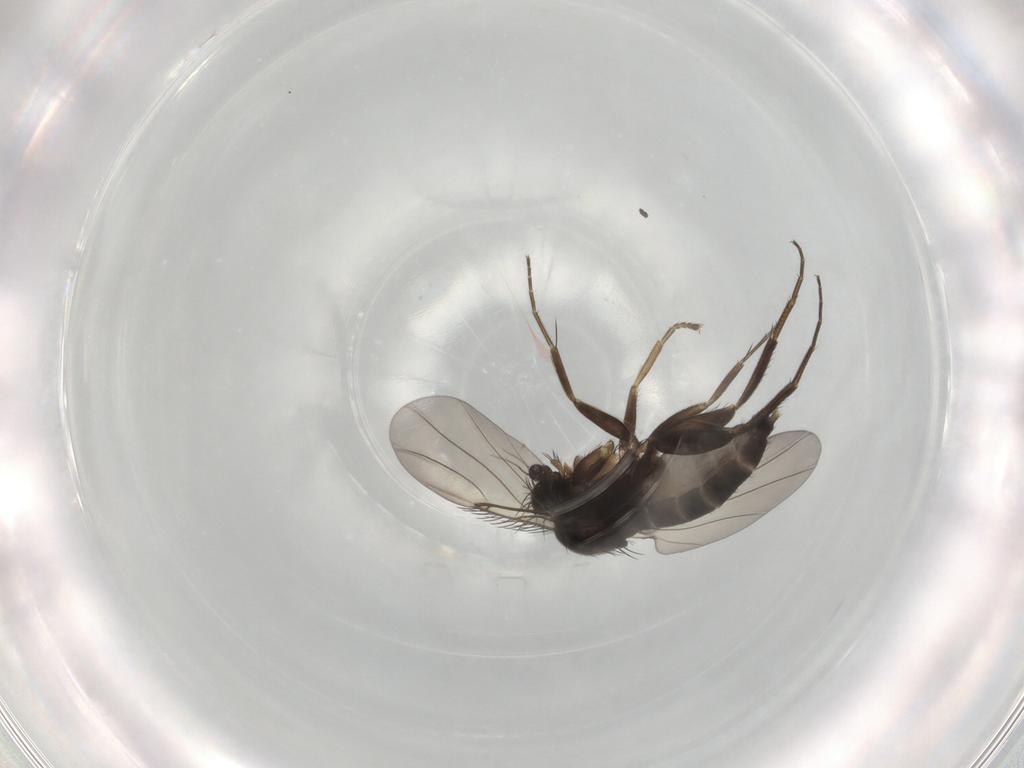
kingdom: Animalia
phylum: Arthropoda
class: Insecta
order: Diptera
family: Phoridae
